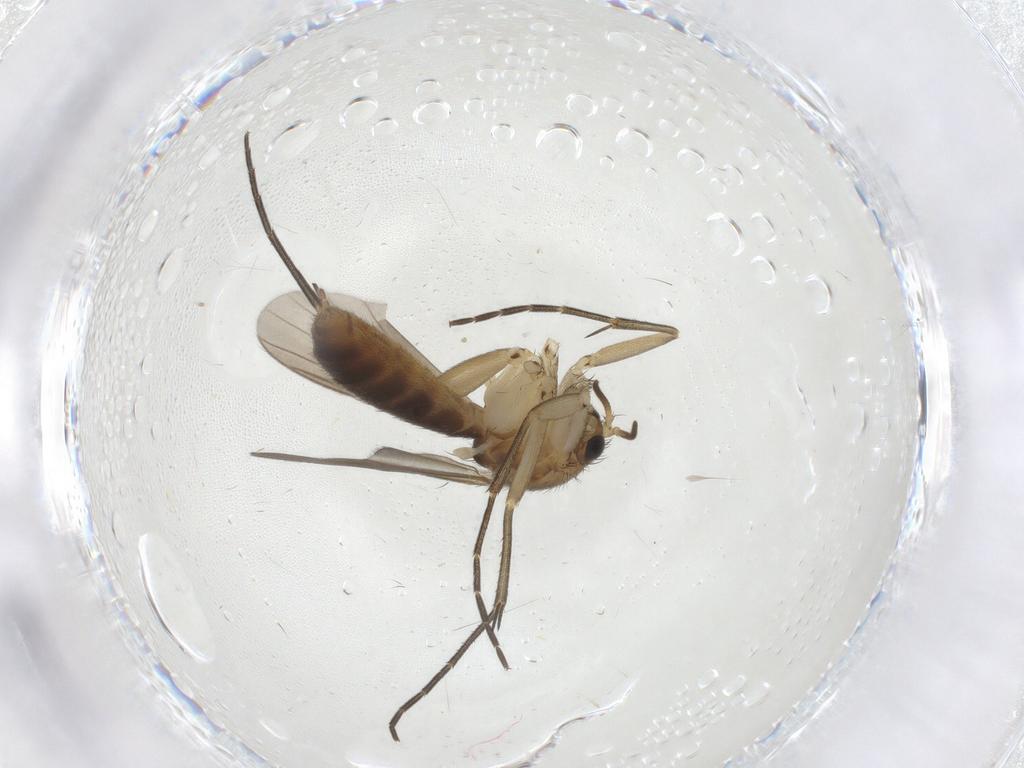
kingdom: Animalia
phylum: Arthropoda
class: Insecta
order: Diptera
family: Mycetophilidae
